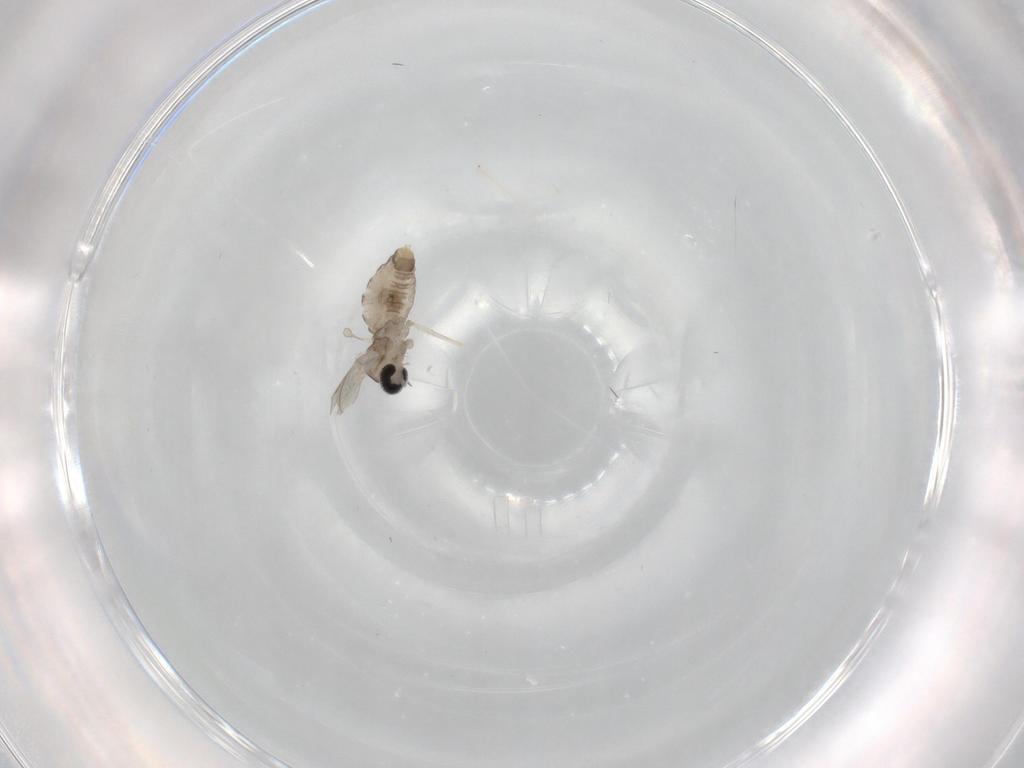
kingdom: Animalia
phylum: Arthropoda
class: Insecta
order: Diptera
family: Cecidomyiidae
